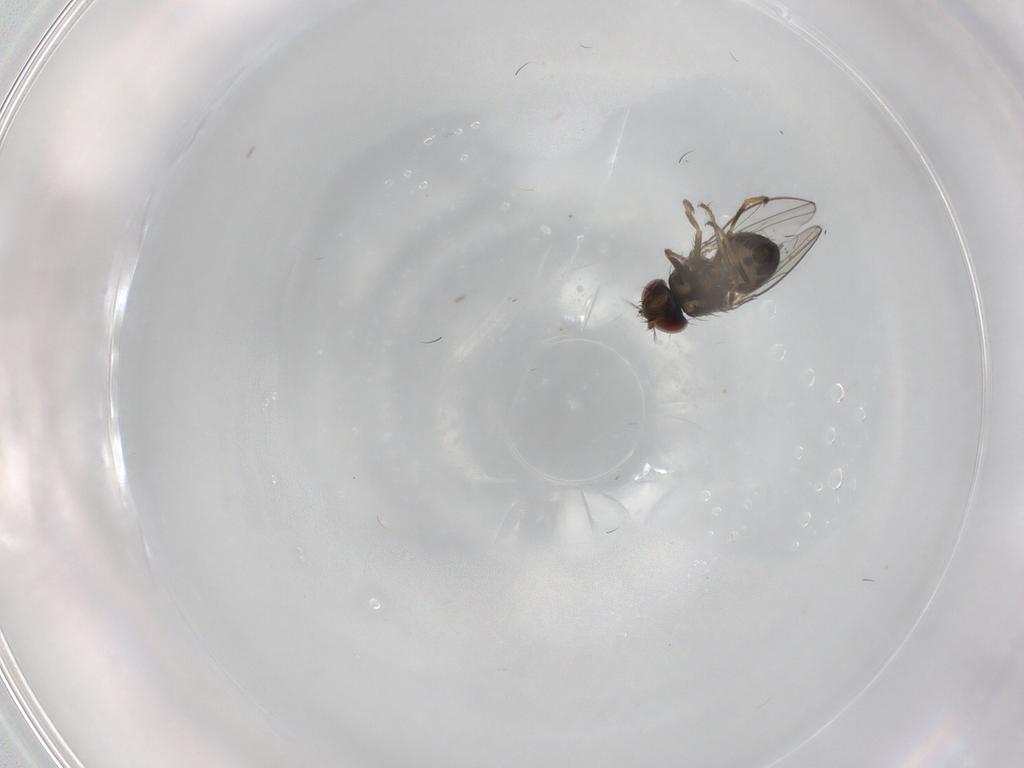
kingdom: Animalia
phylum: Arthropoda
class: Insecta
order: Diptera
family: Ephydridae
